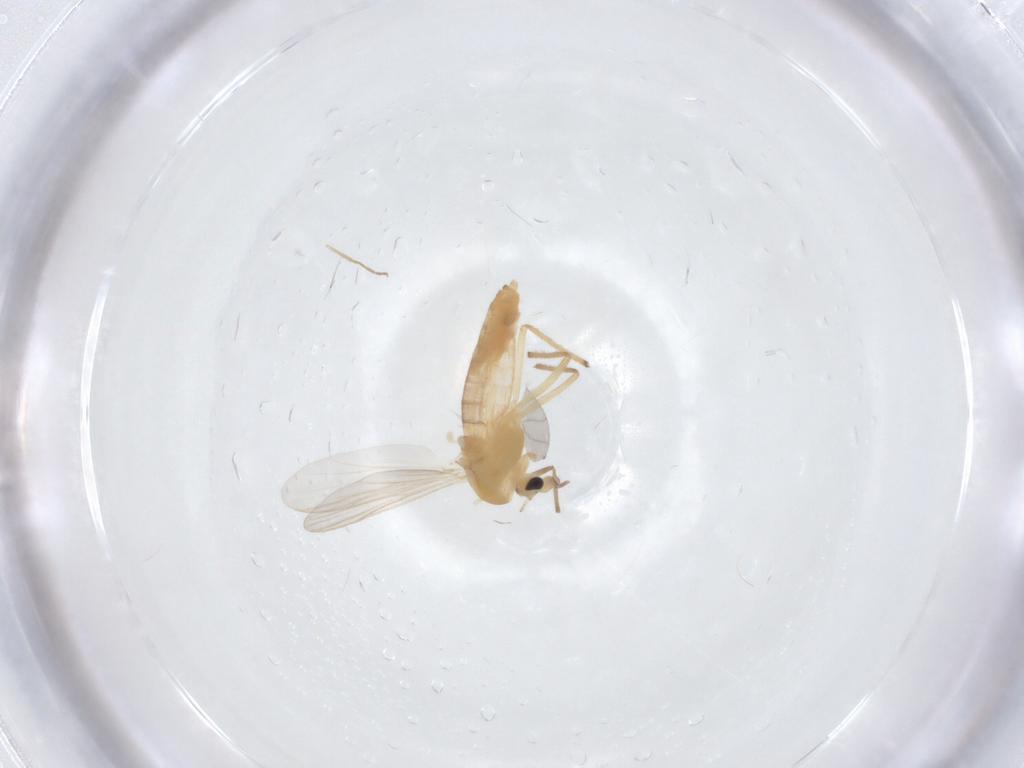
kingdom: Animalia
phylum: Arthropoda
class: Insecta
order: Diptera
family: Chironomidae
